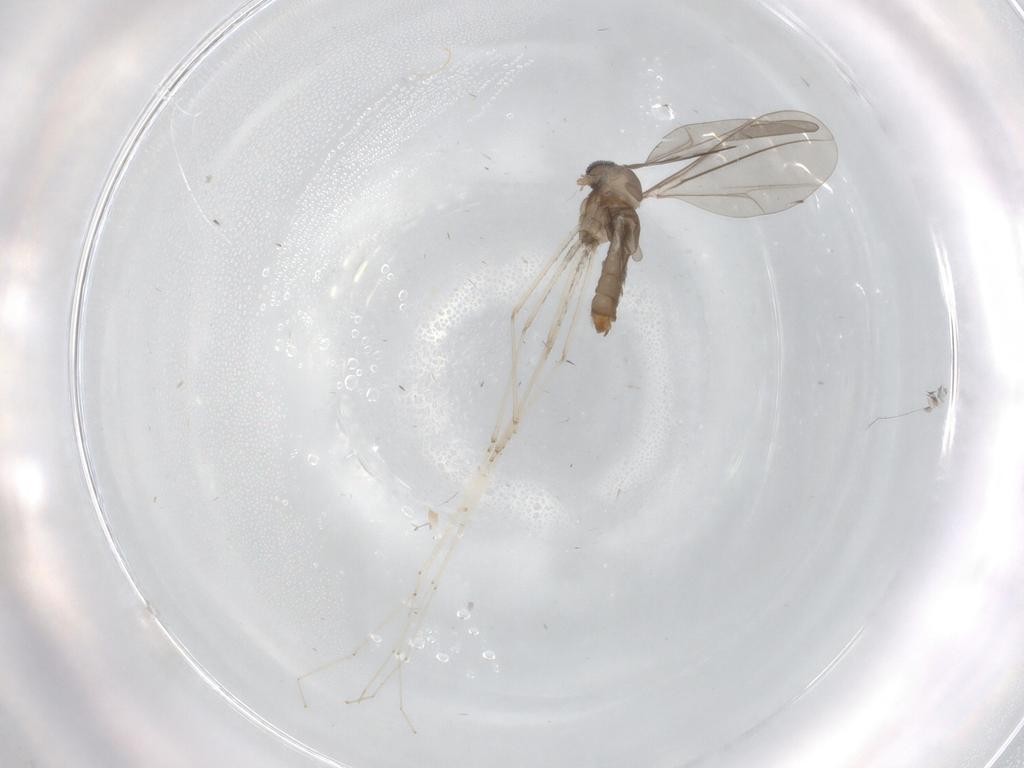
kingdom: Animalia
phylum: Arthropoda
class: Insecta
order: Diptera
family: Sciaridae
